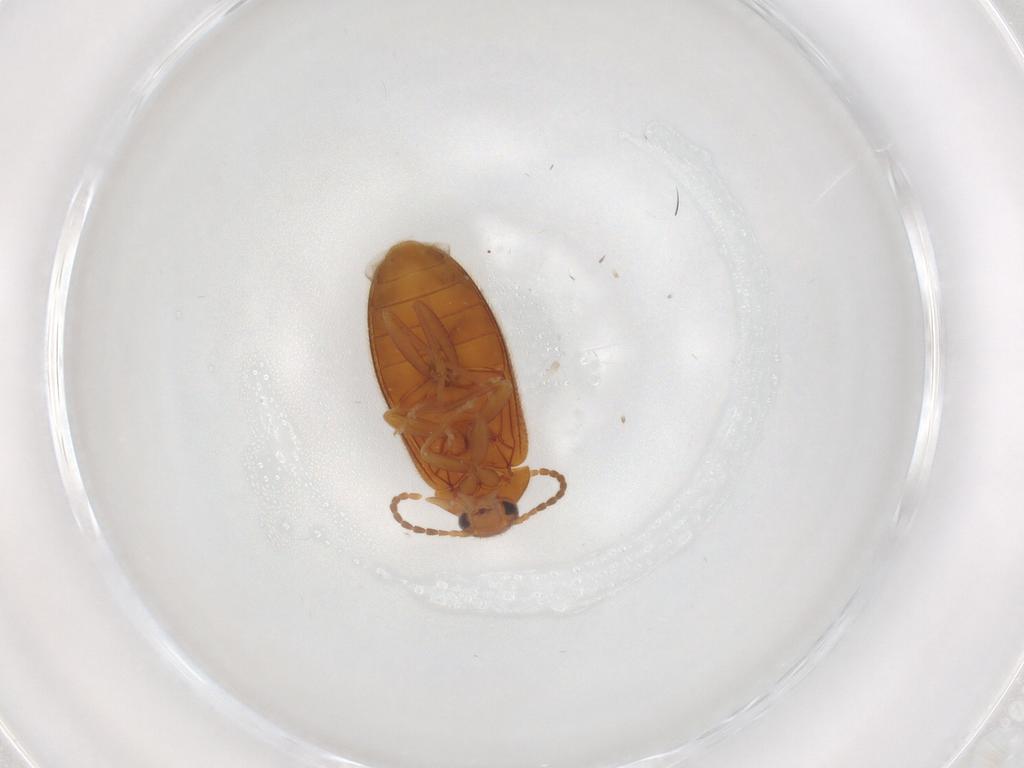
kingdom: Animalia
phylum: Arthropoda
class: Insecta
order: Coleoptera
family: Scraptiidae
